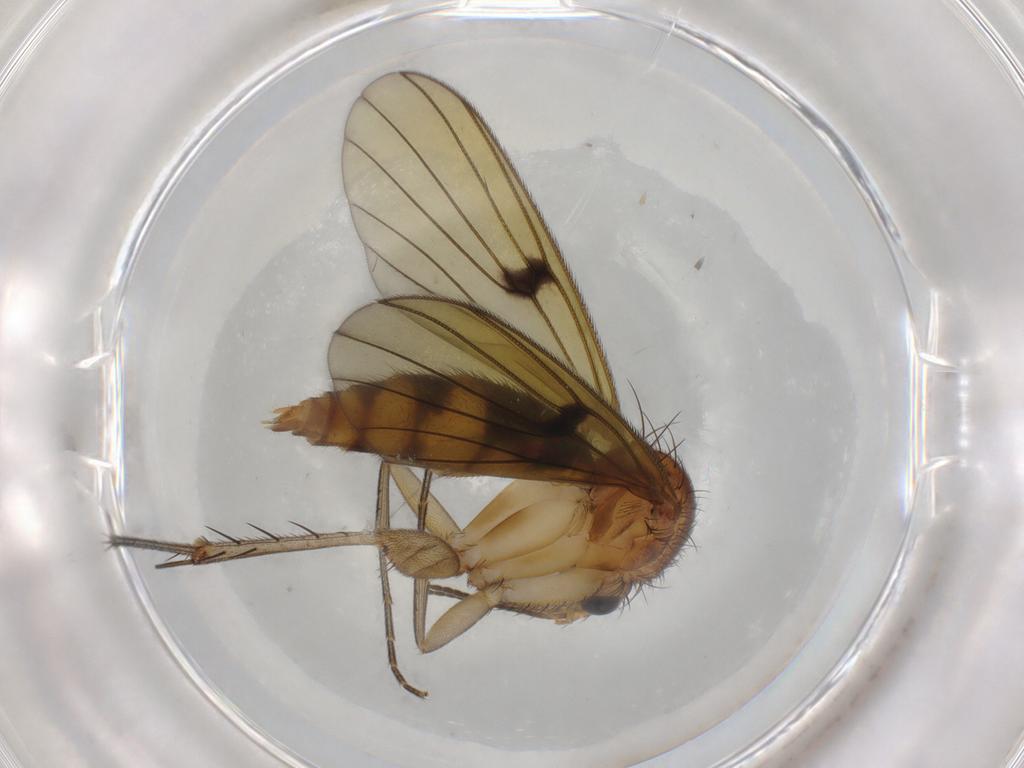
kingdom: Animalia
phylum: Arthropoda
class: Insecta
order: Diptera
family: Mycetophilidae
